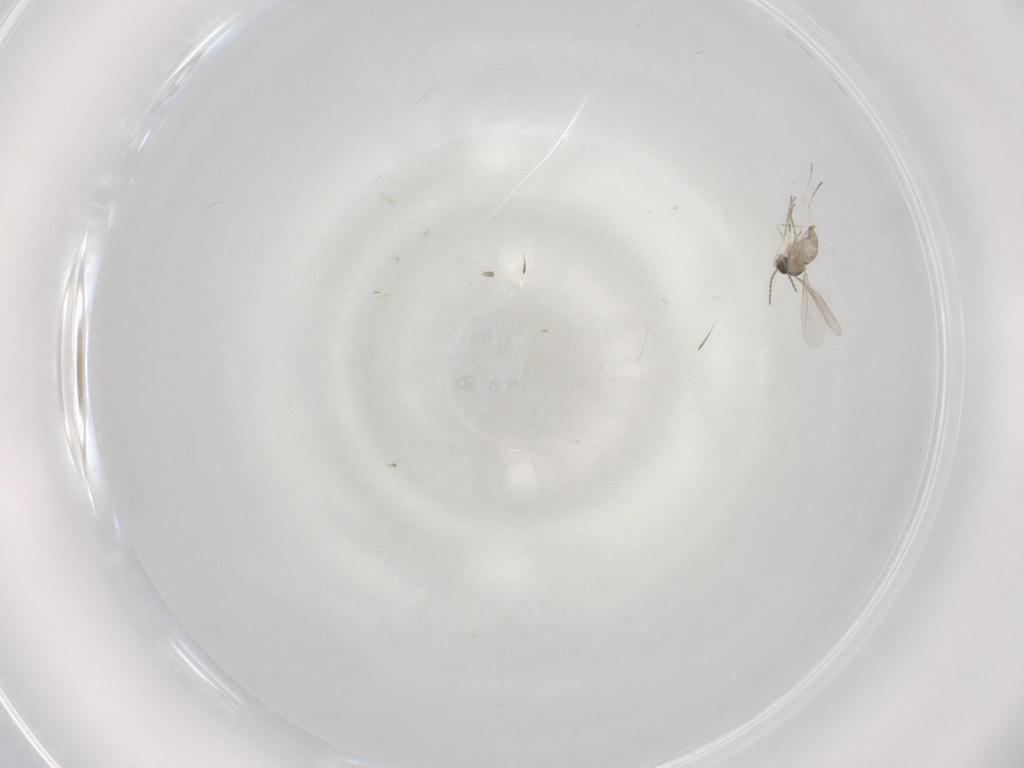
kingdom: Animalia
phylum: Arthropoda
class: Insecta
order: Diptera
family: Cecidomyiidae
